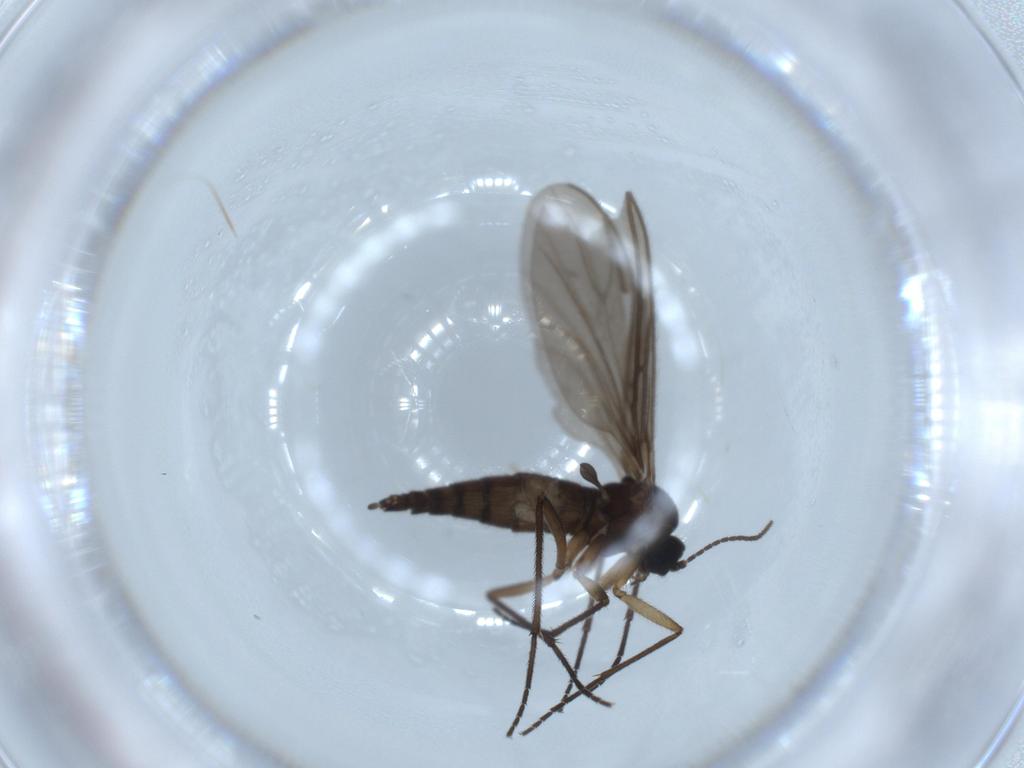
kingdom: Animalia
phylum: Arthropoda
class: Insecta
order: Diptera
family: Sciaridae
